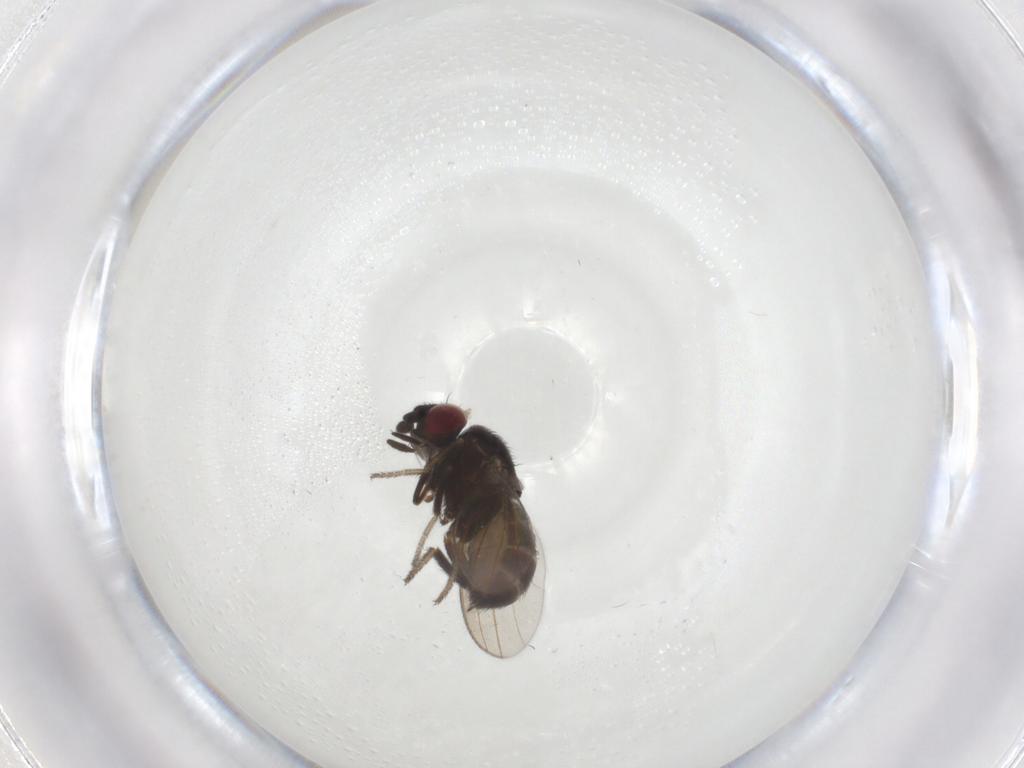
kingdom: Animalia
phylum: Arthropoda
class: Insecta
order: Diptera
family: Milichiidae
